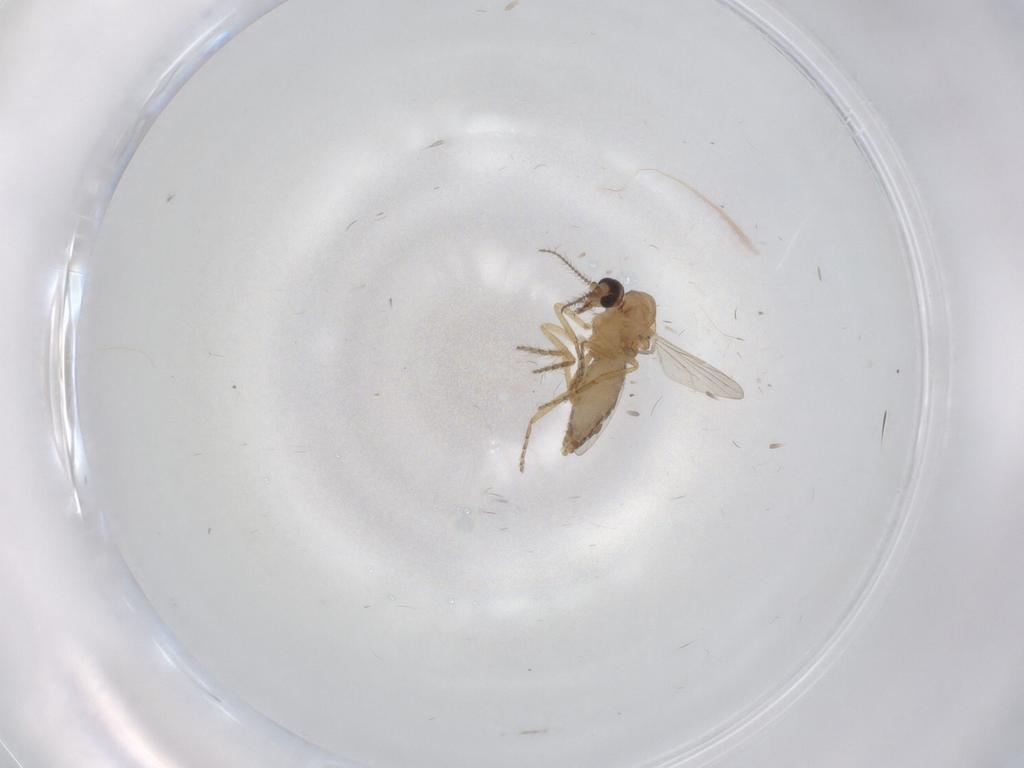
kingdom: Animalia
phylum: Arthropoda
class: Insecta
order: Diptera
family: Ceratopogonidae
